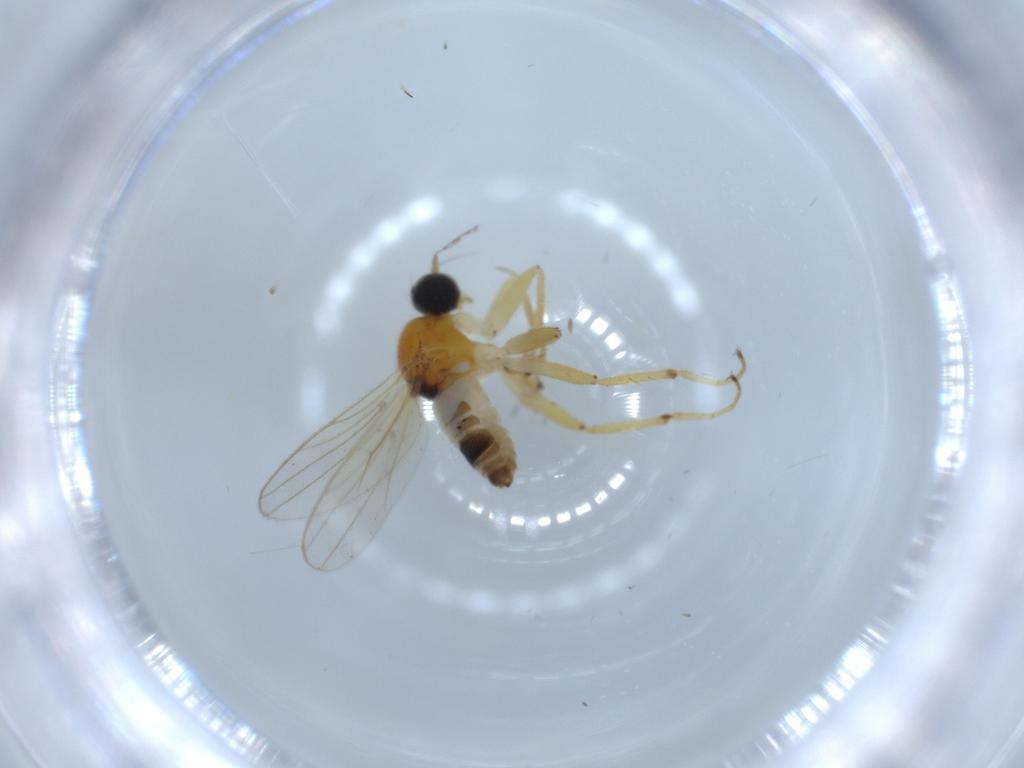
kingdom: Animalia
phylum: Arthropoda
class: Insecta
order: Diptera
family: Hybotidae
